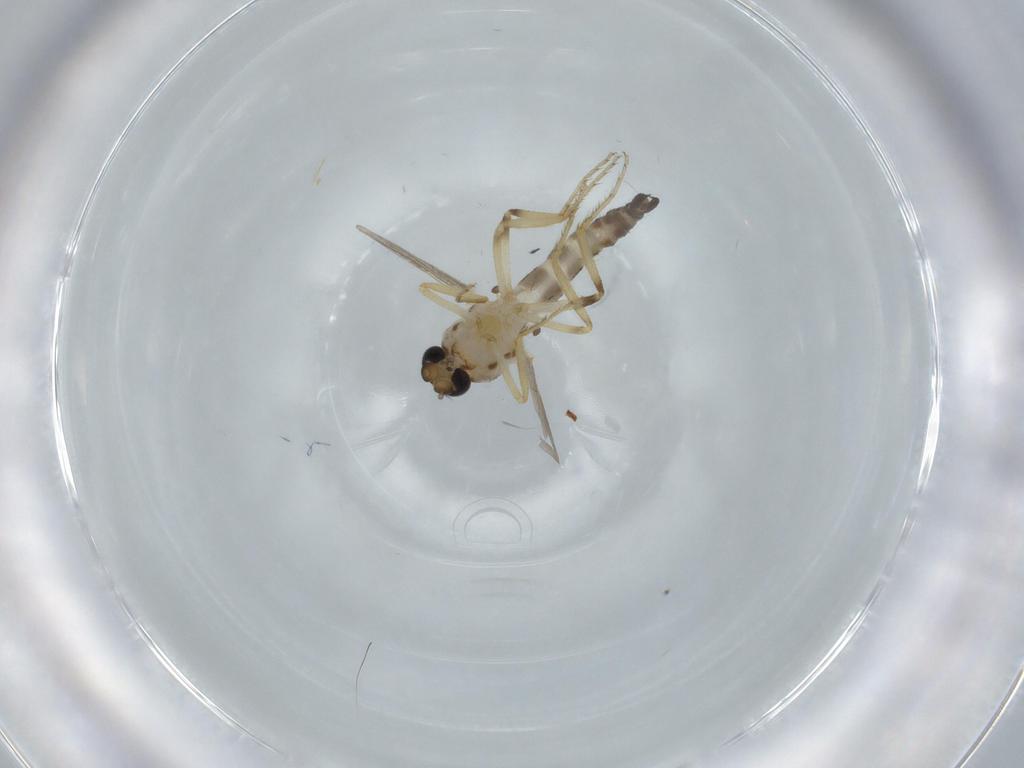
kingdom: Animalia
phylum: Arthropoda
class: Insecta
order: Diptera
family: Ceratopogonidae
